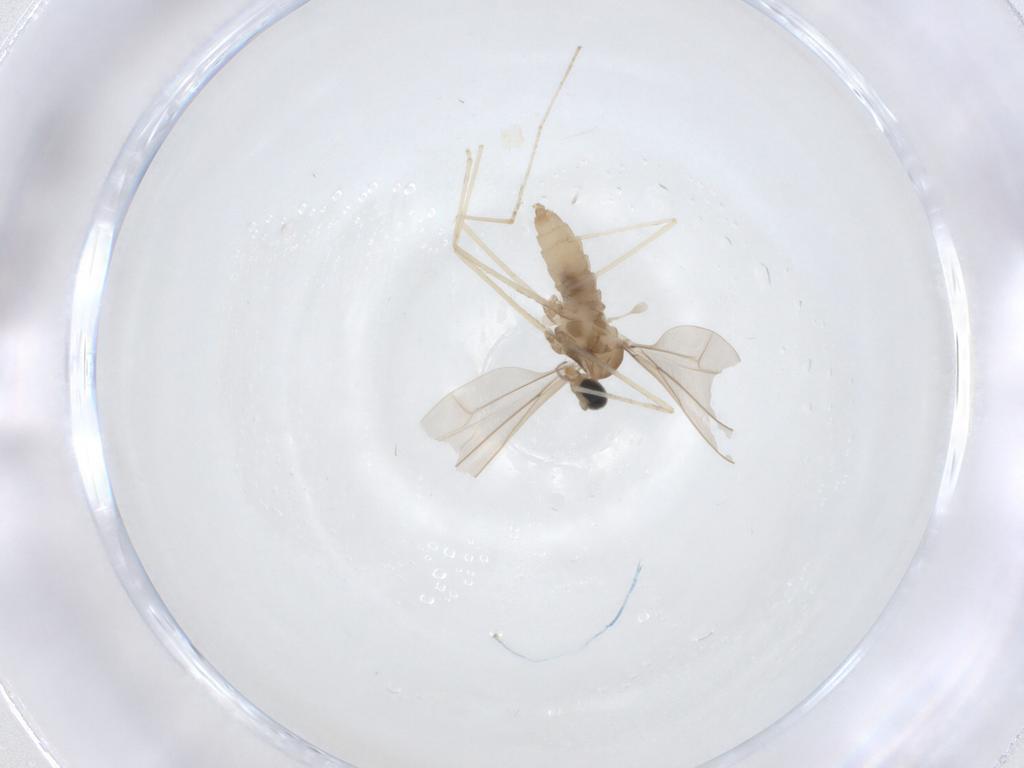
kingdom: Animalia
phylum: Arthropoda
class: Insecta
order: Diptera
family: Cecidomyiidae
